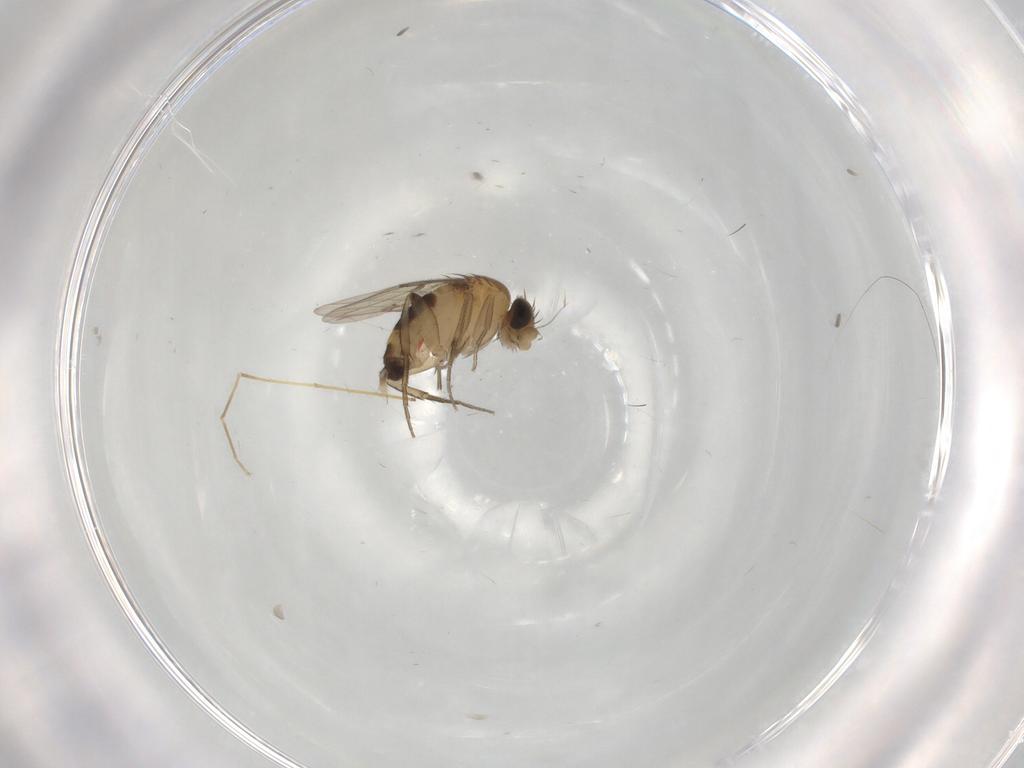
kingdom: Animalia
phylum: Arthropoda
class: Insecta
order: Diptera
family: Phoridae
